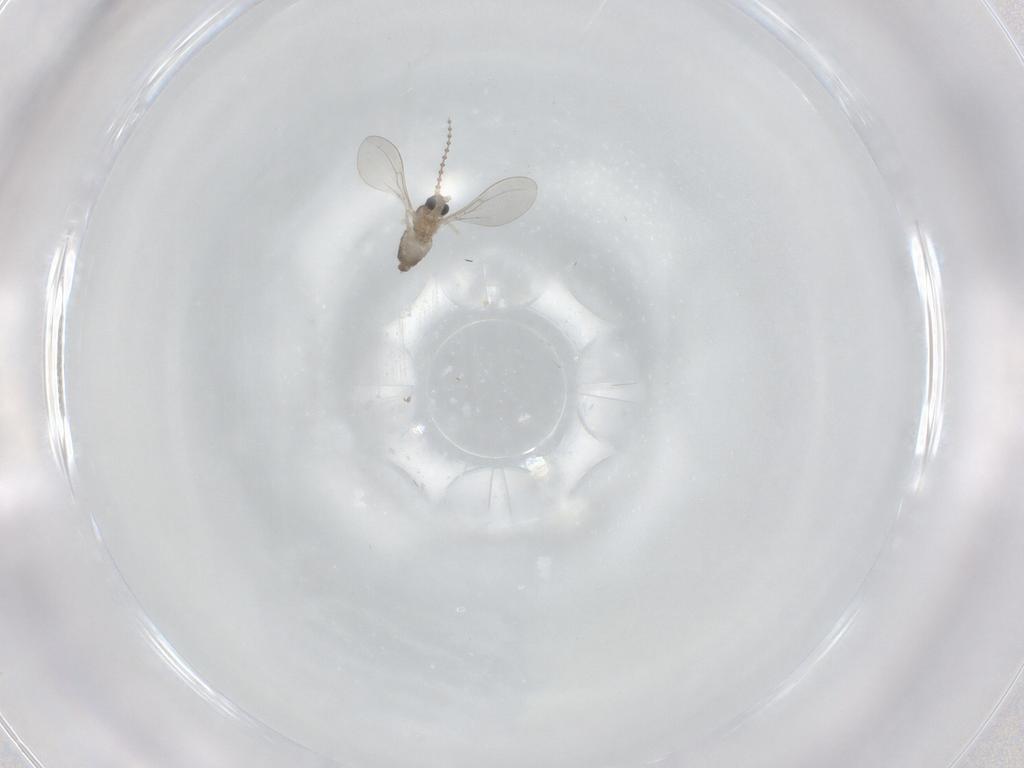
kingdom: Animalia
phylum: Arthropoda
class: Insecta
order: Diptera
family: Cecidomyiidae
